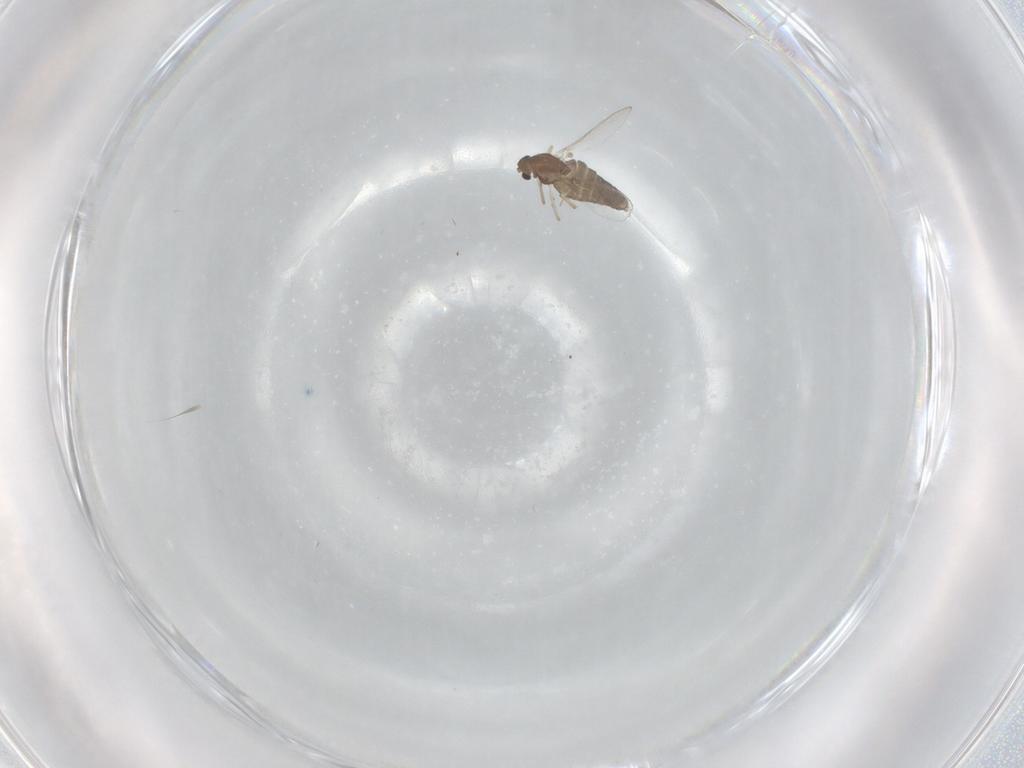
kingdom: Animalia
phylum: Arthropoda
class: Insecta
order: Diptera
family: Chironomidae
